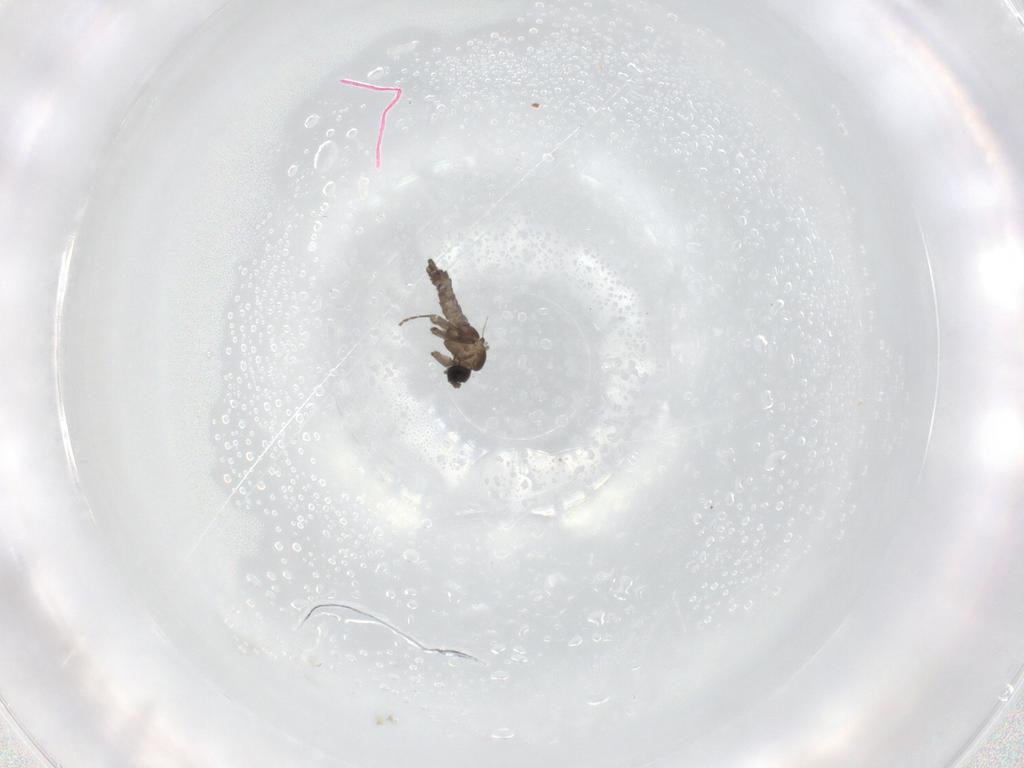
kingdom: Animalia
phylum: Arthropoda
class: Insecta
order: Diptera
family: Sciaridae
